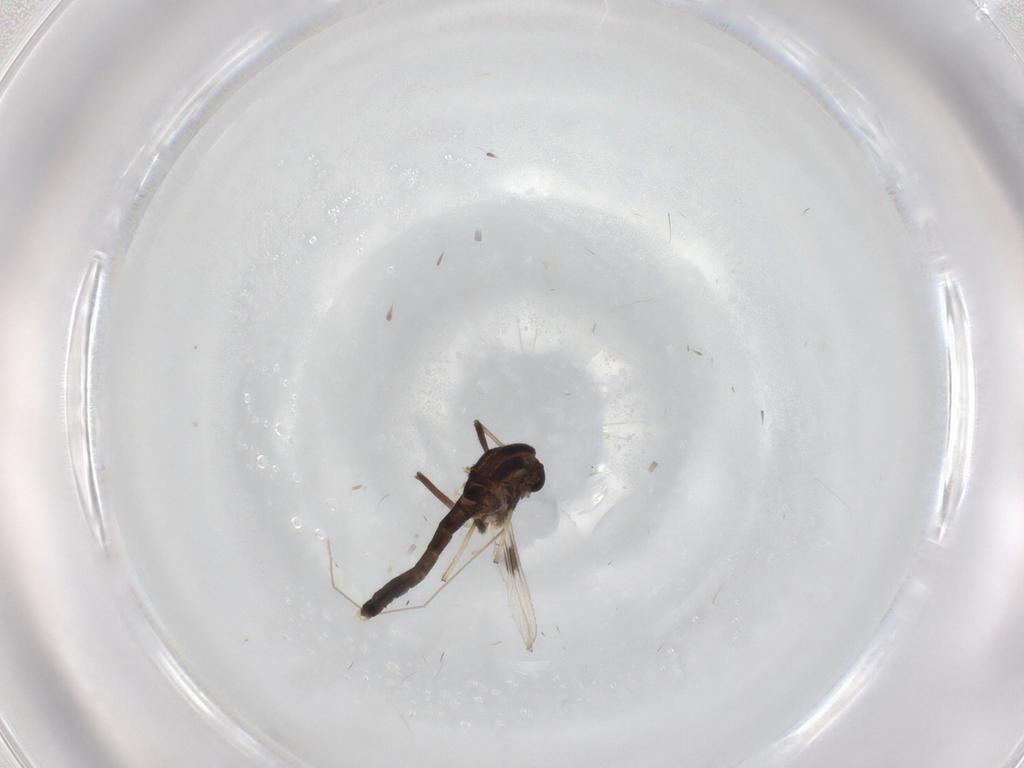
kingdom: Animalia
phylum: Arthropoda
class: Insecta
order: Diptera
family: Chironomidae
